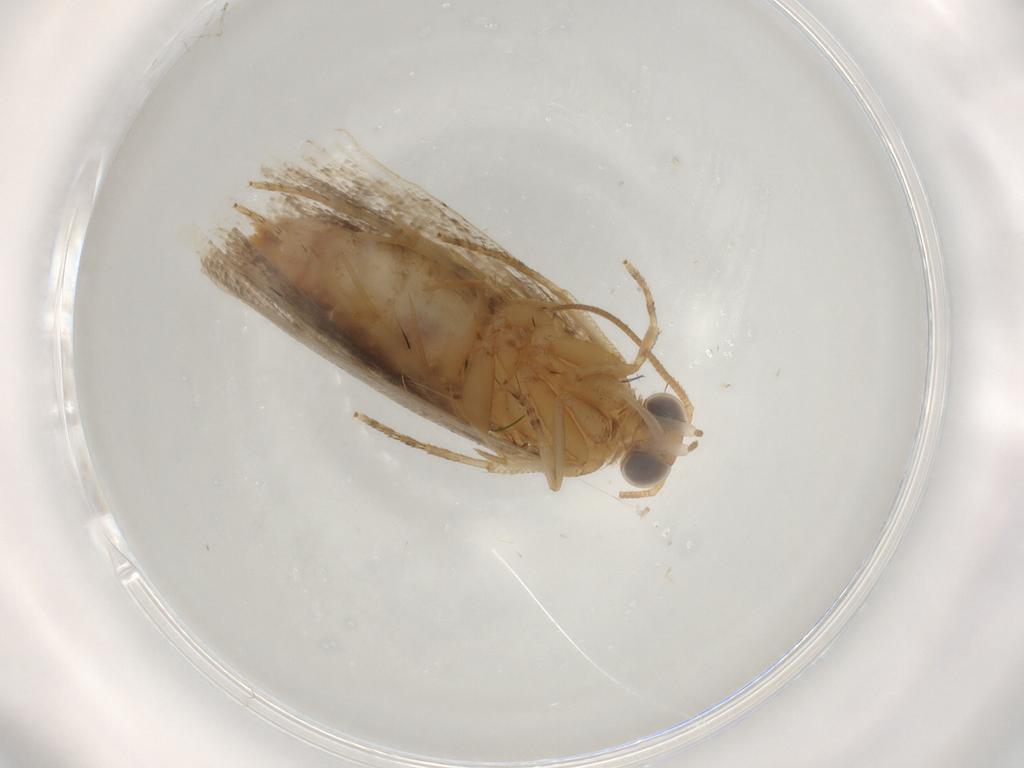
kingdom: Animalia
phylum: Arthropoda
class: Insecta
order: Lepidoptera
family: Tortricidae
